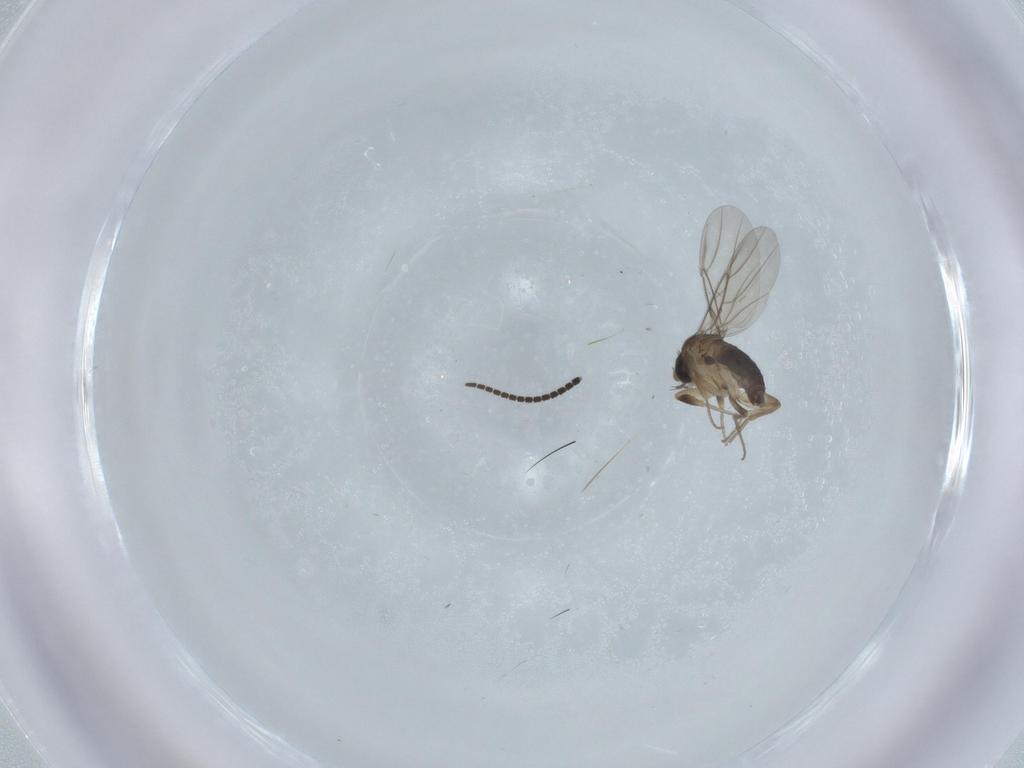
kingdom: Animalia
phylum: Arthropoda
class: Insecta
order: Diptera
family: Phoridae
